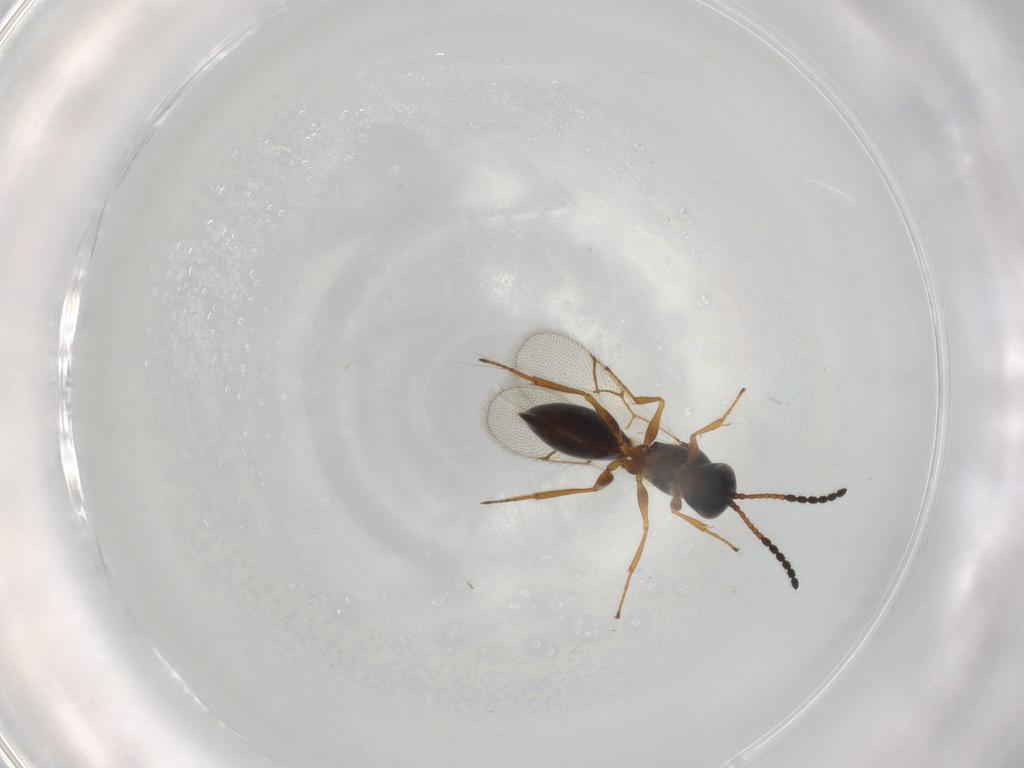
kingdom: Animalia
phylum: Arthropoda
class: Insecta
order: Hymenoptera
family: Figitidae
